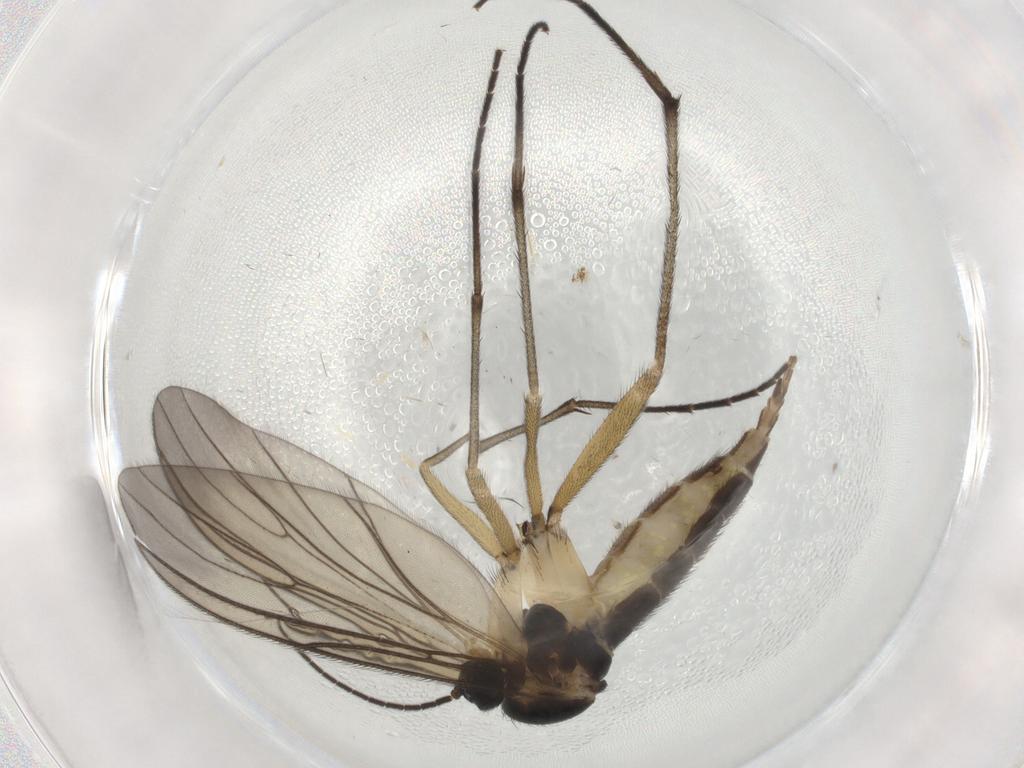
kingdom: Animalia
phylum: Arthropoda
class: Insecta
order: Diptera
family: Sciaridae
